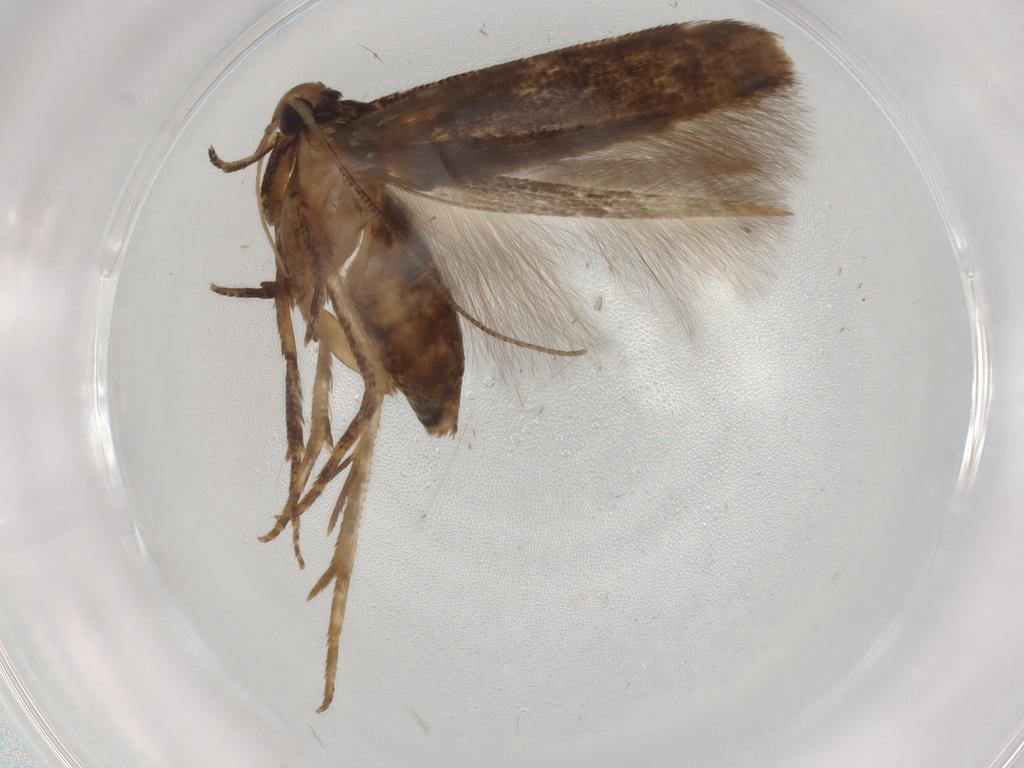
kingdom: Animalia
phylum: Arthropoda
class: Insecta
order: Lepidoptera
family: Cosmopterigidae
